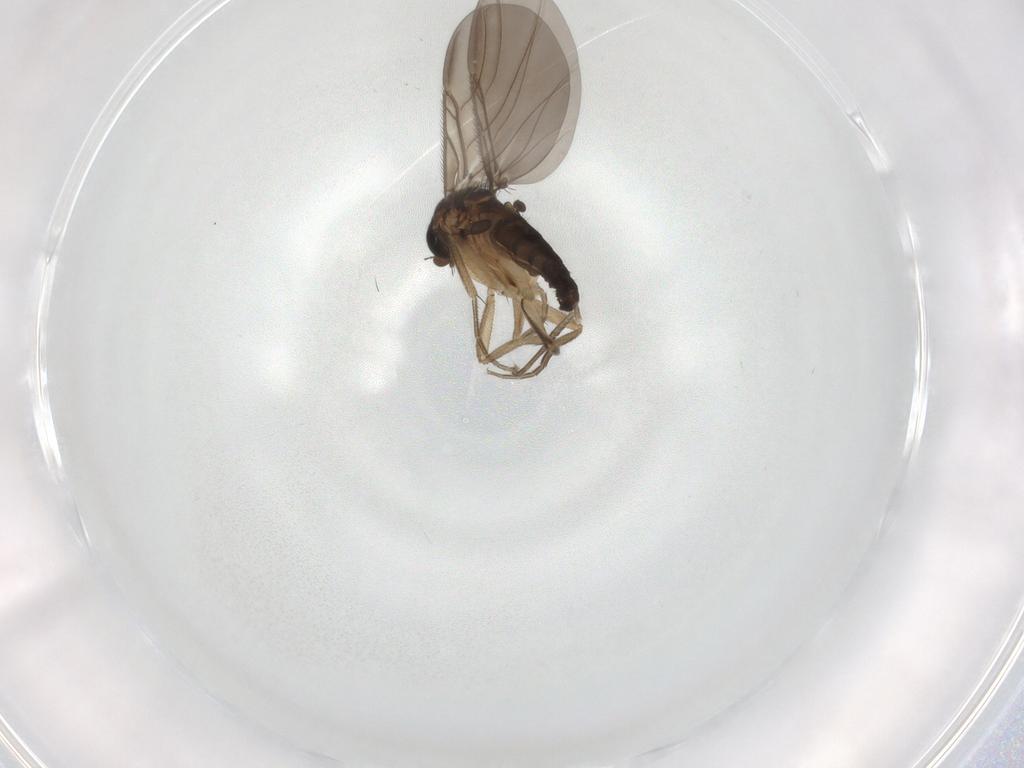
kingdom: Animalia
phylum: Arthropoda
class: Insecta
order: Diptera
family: Phoridae
